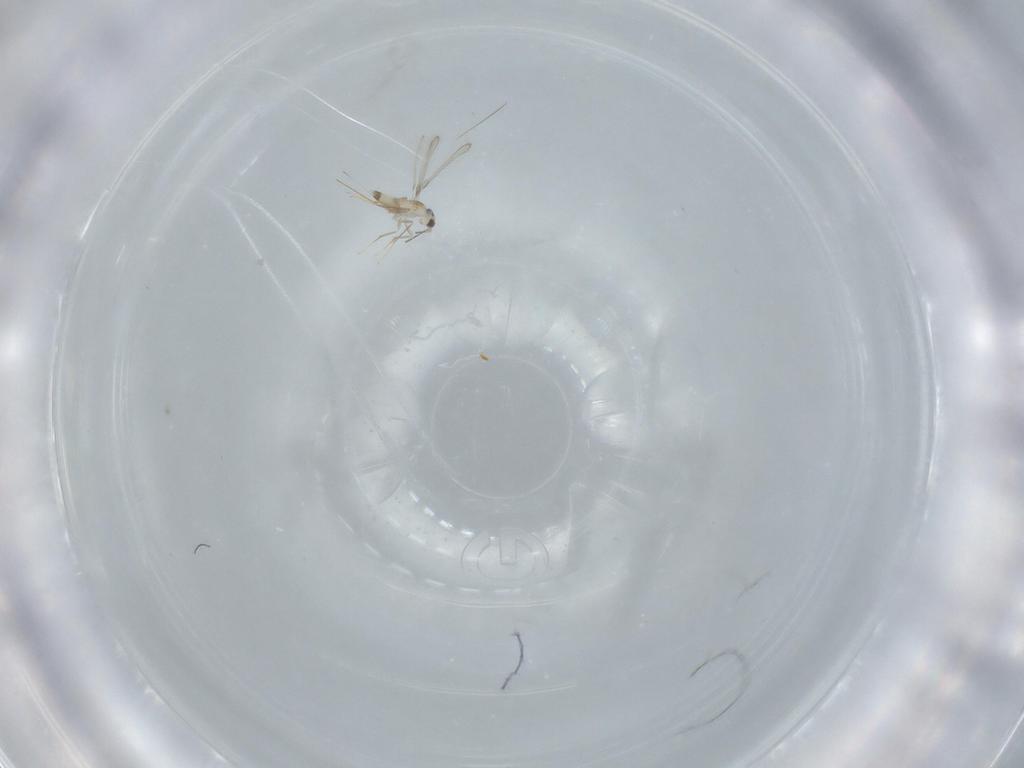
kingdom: Animalia
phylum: Arthropoda
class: Insecta
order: Hymenoptera
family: Mymaridae
